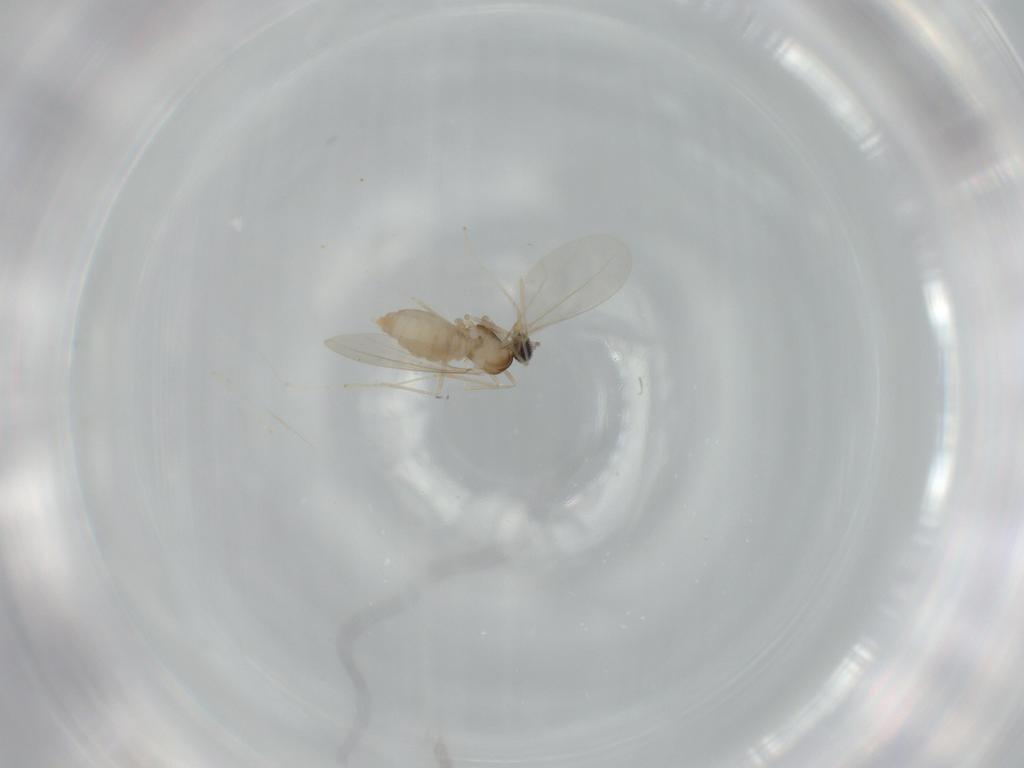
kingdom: Animalia
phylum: Arthropoda
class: Insecta
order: Diptera
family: Cecidomyiidae
